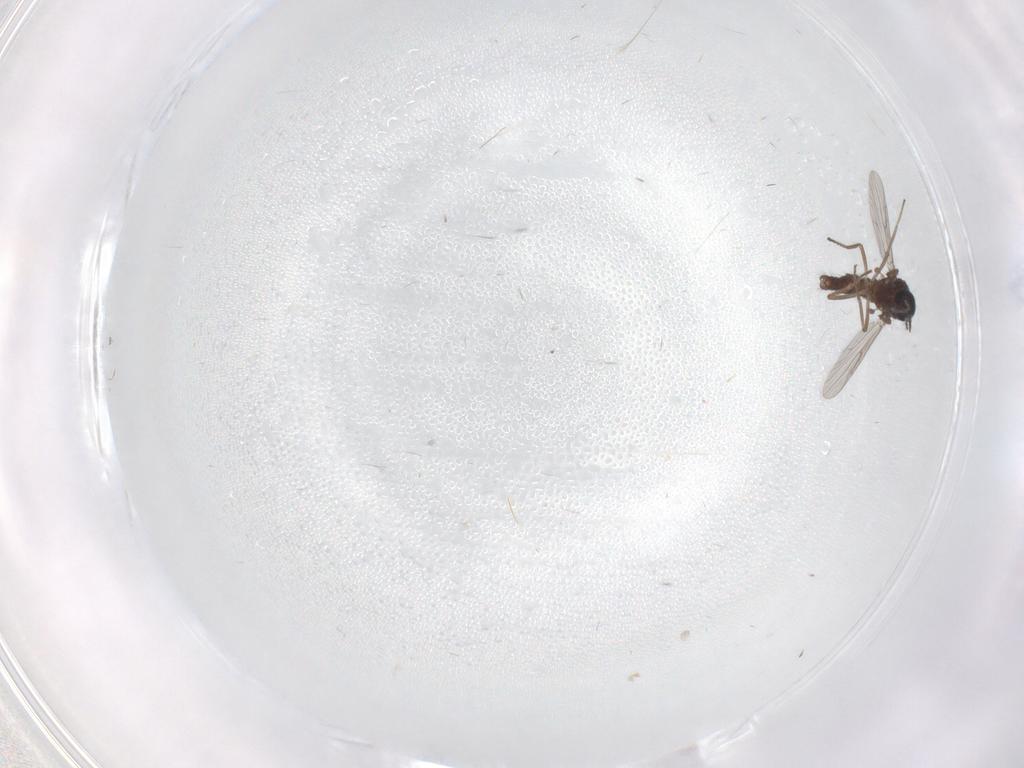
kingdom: Animalia
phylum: Arthropoda
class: Insecta
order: Diptera
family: Ceratopogonidae
